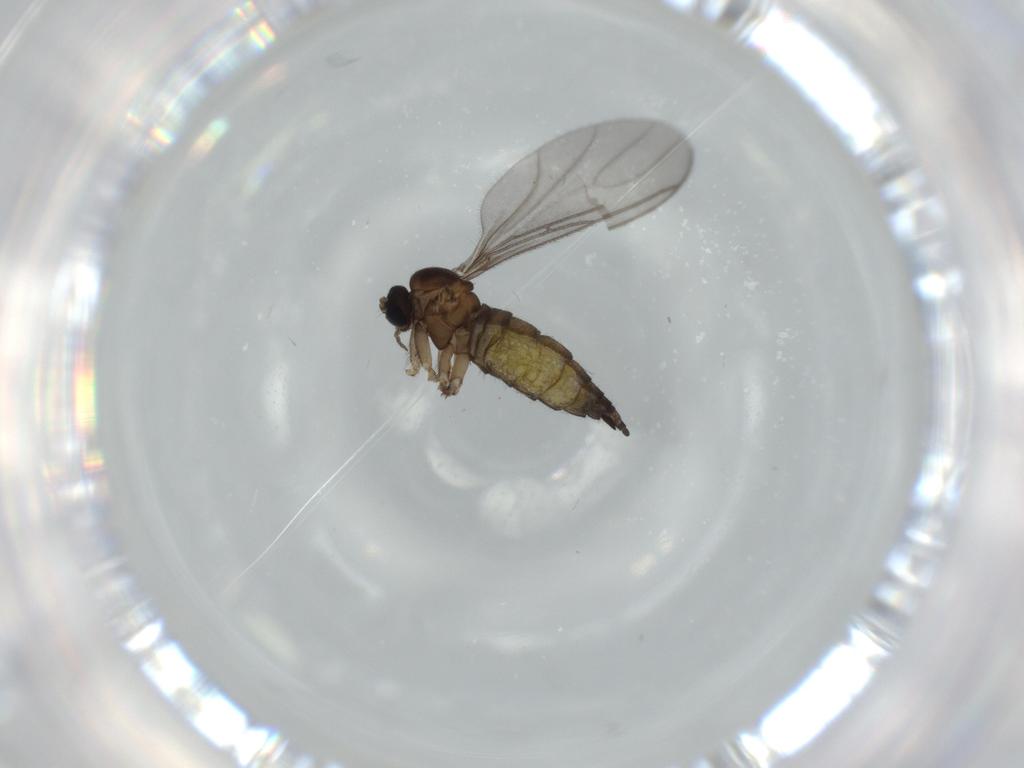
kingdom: Animalia
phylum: Arthropoda
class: Insecta
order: Diptera
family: Sciaridae
